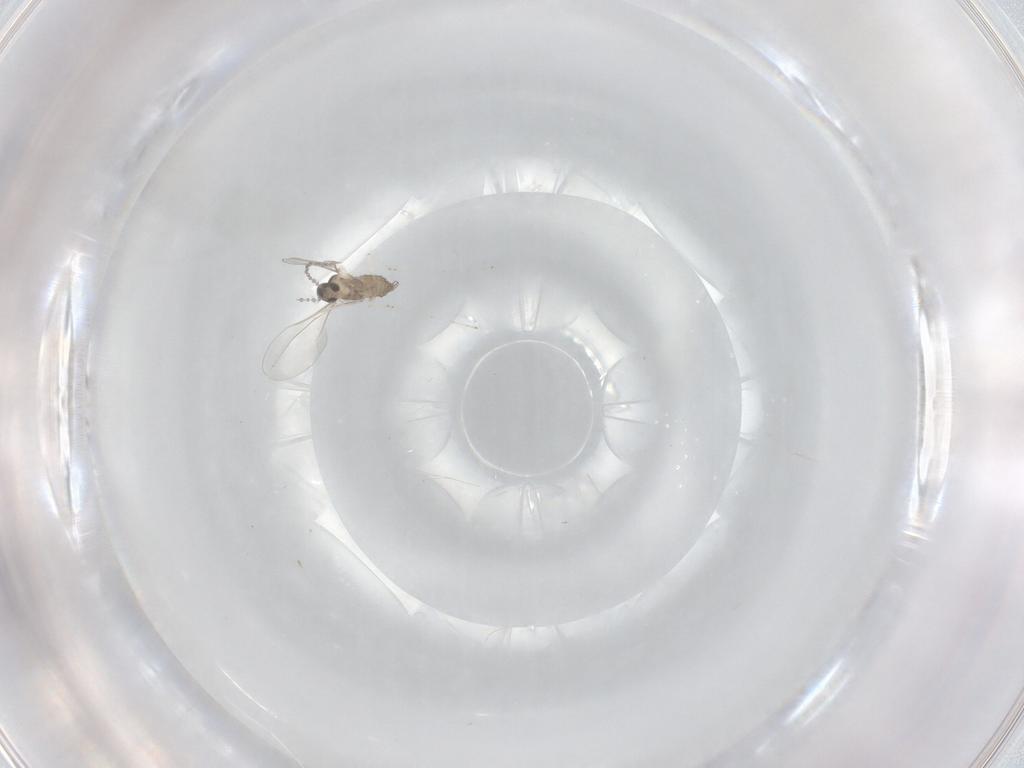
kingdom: Animalia
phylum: Arthropoda
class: Insecta
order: Diptera
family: Cecidomyiidae
